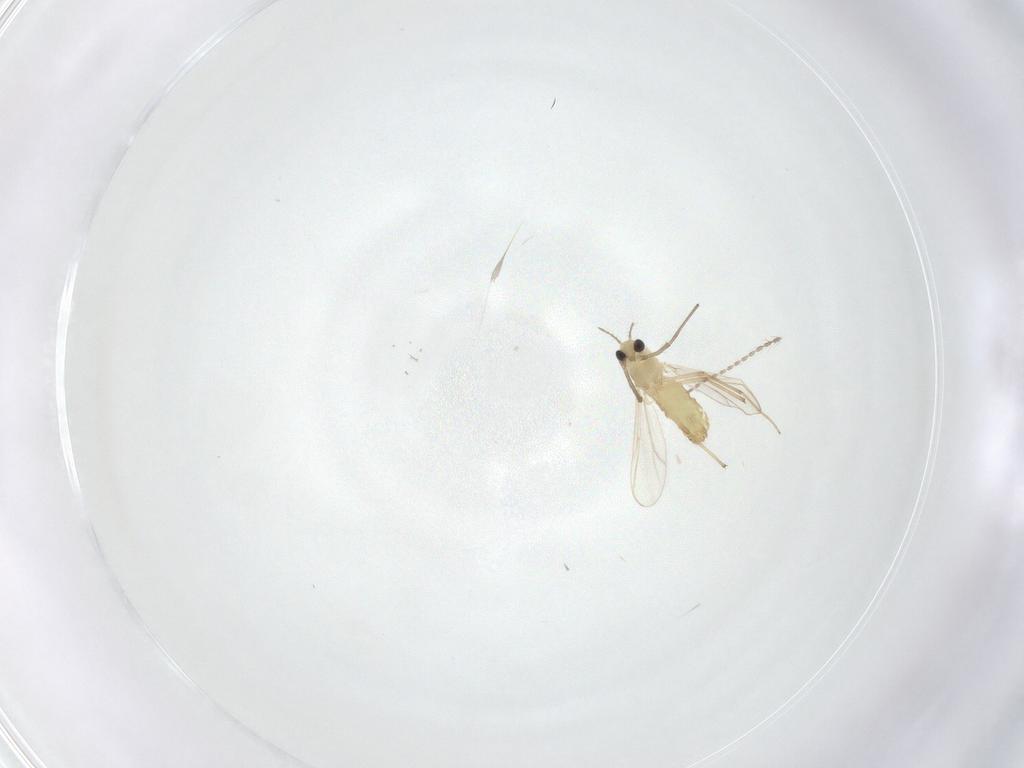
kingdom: Animalia
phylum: Arthropoda
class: Insecta
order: Diptera
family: Chironomidae
